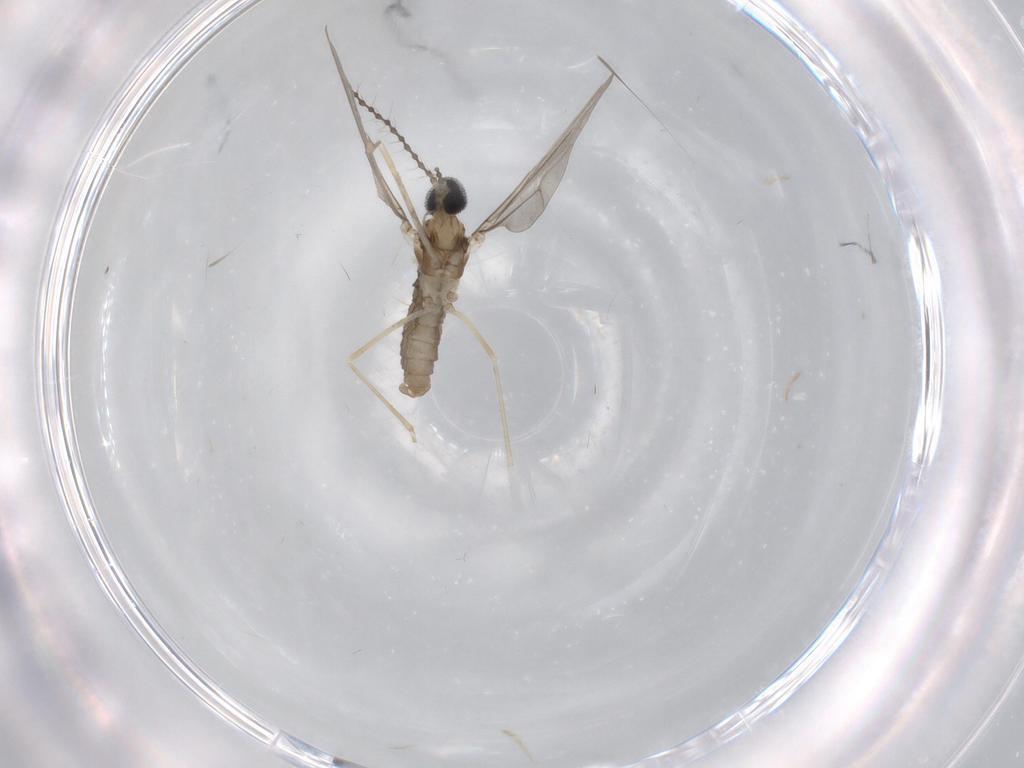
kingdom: Animalia
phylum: Arthropoda
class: Insecta
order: Diptera
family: Cecidomyiidae
